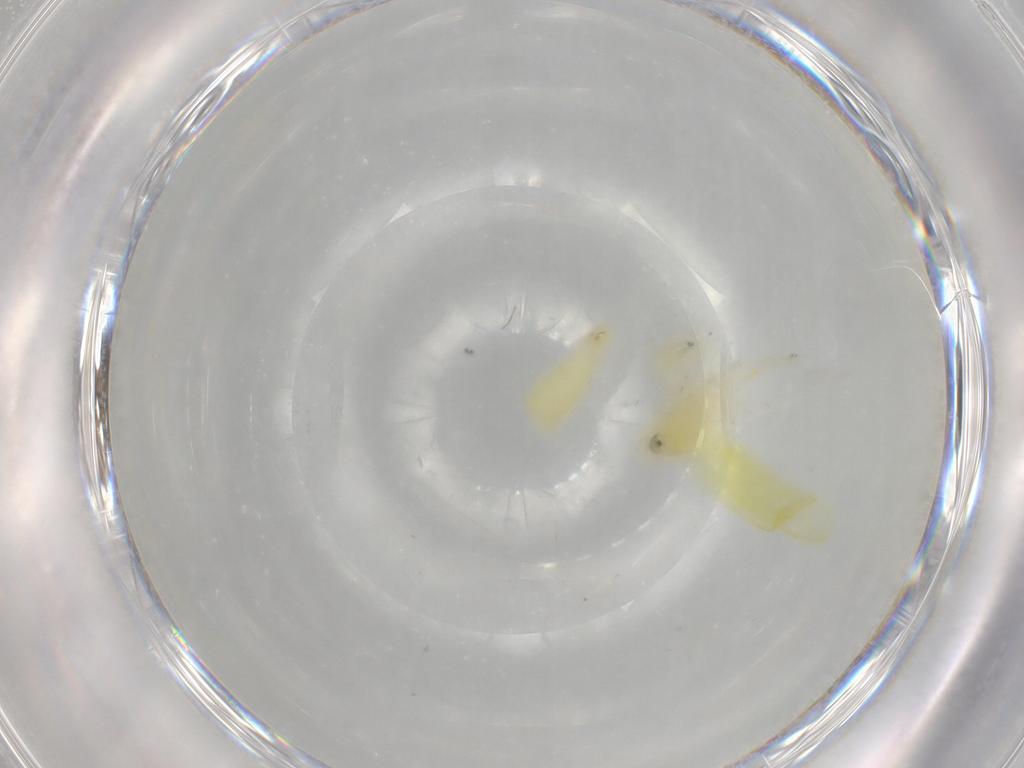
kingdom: Animalia
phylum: Arthropoda
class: Insecta
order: Hemiptera
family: Cicadellidae
